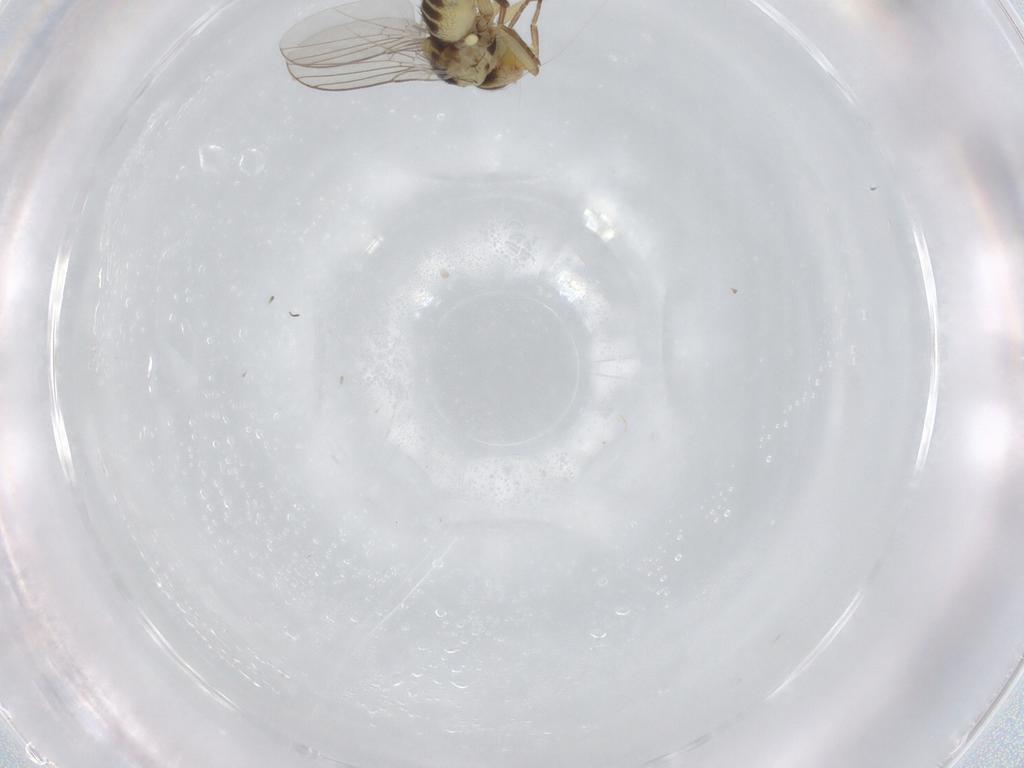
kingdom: Animalia
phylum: Arthropoda
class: Insecta
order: Diptera
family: Agromyzidae
